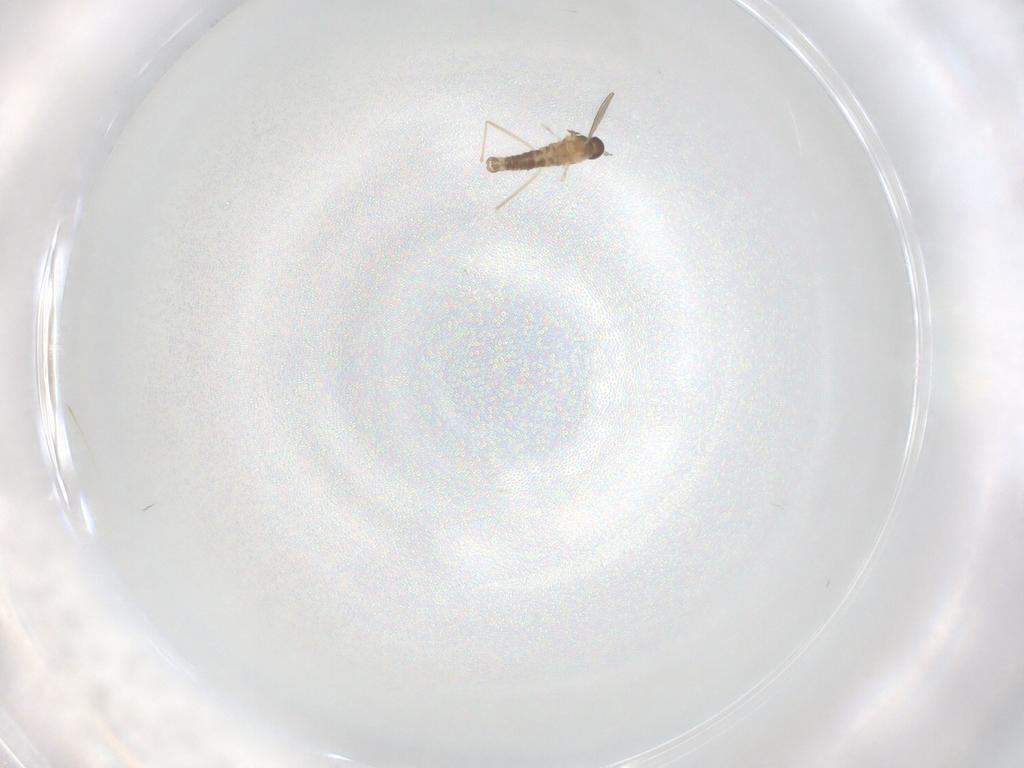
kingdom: Animalia
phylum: Arthropoda
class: Insecta
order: Diptera
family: Cecidomyiidae
